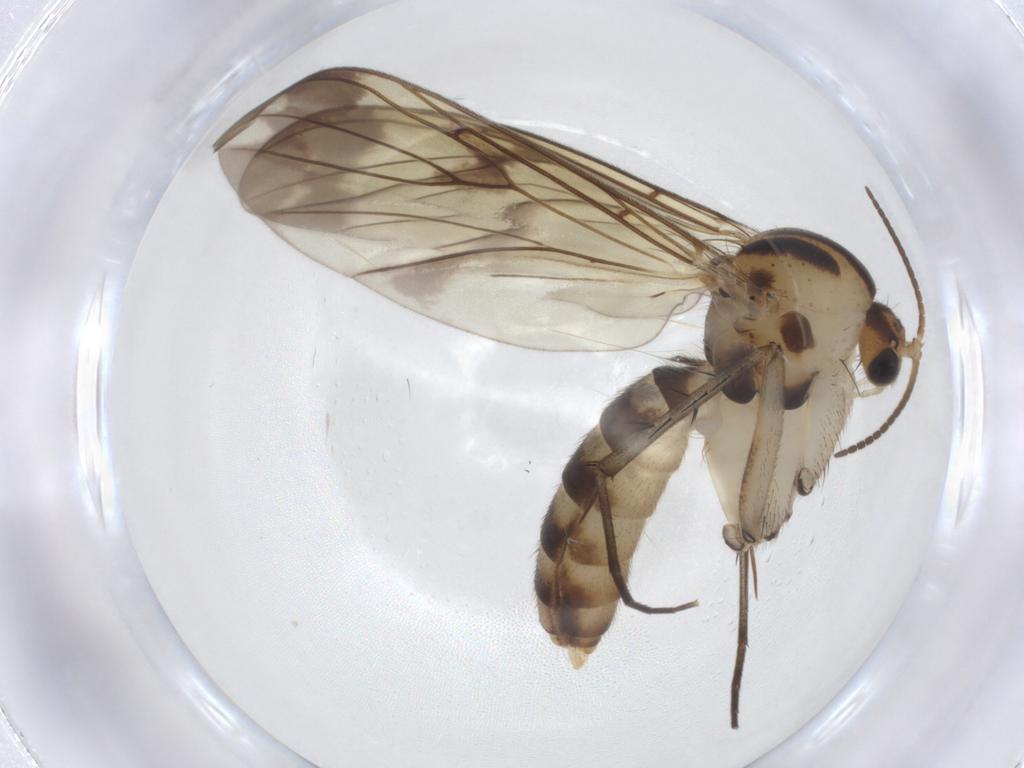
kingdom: Animalia
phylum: Arthropoda
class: Insecta
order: Diptera
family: Mycetophilidae
